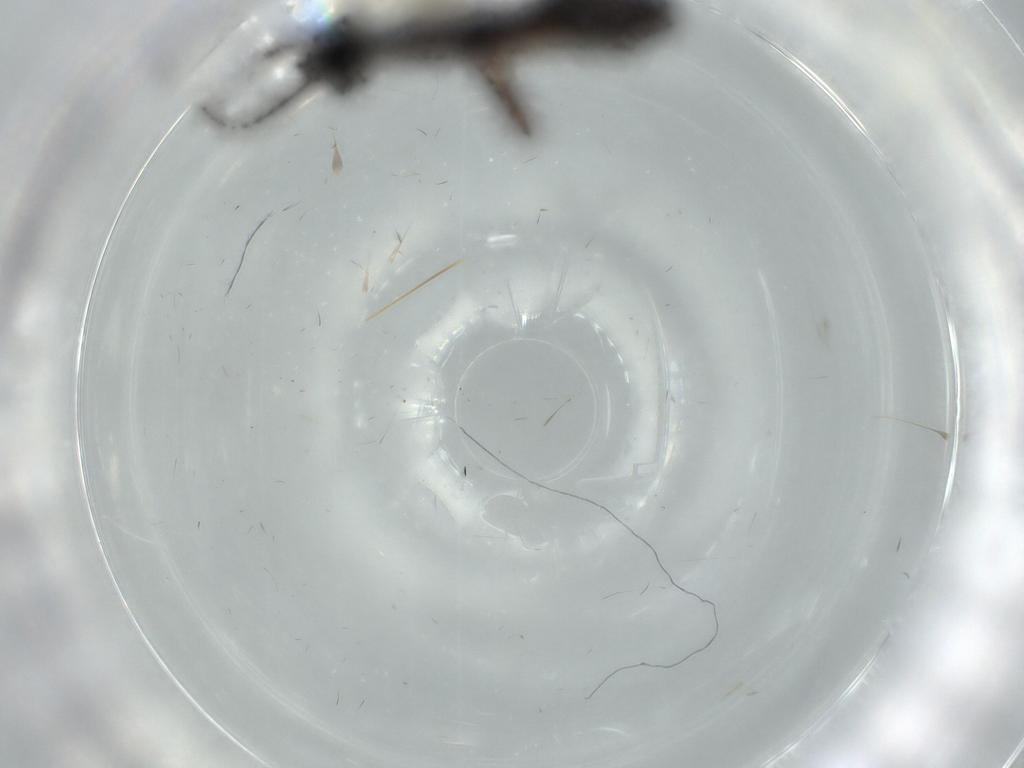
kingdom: Animalia
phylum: Arthropoda
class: Insecta
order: Hymenoptera
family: Formicidae
